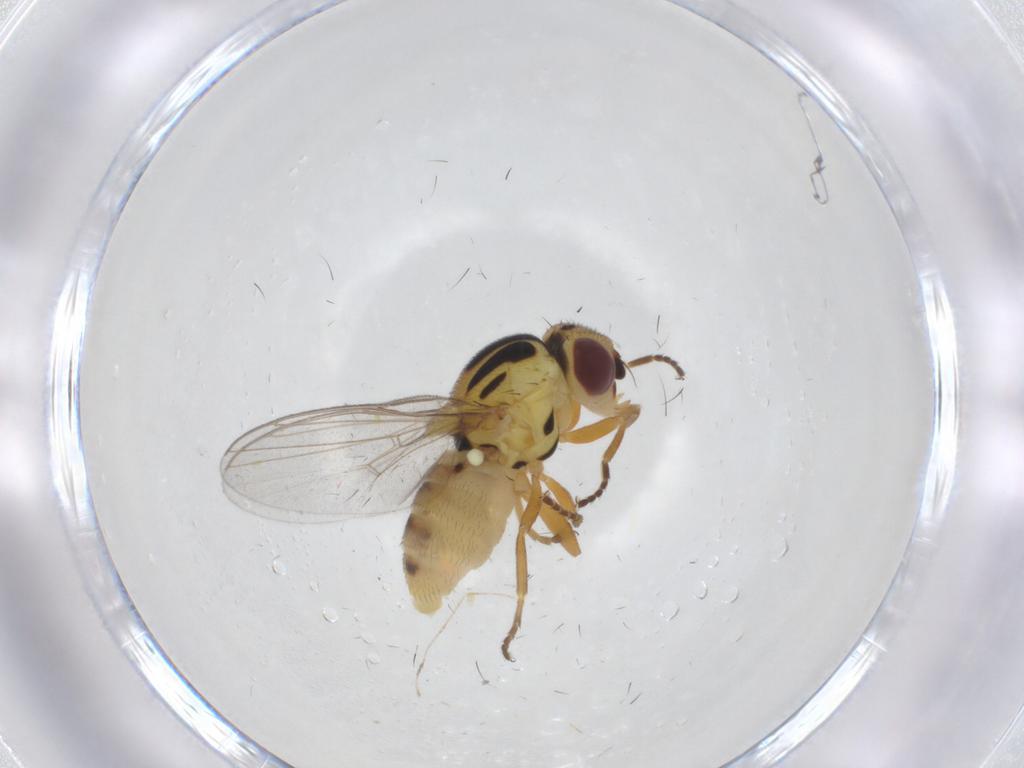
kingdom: Animalia
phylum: Arthropoda
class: Insecta
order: Diptera
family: Chloropidae
